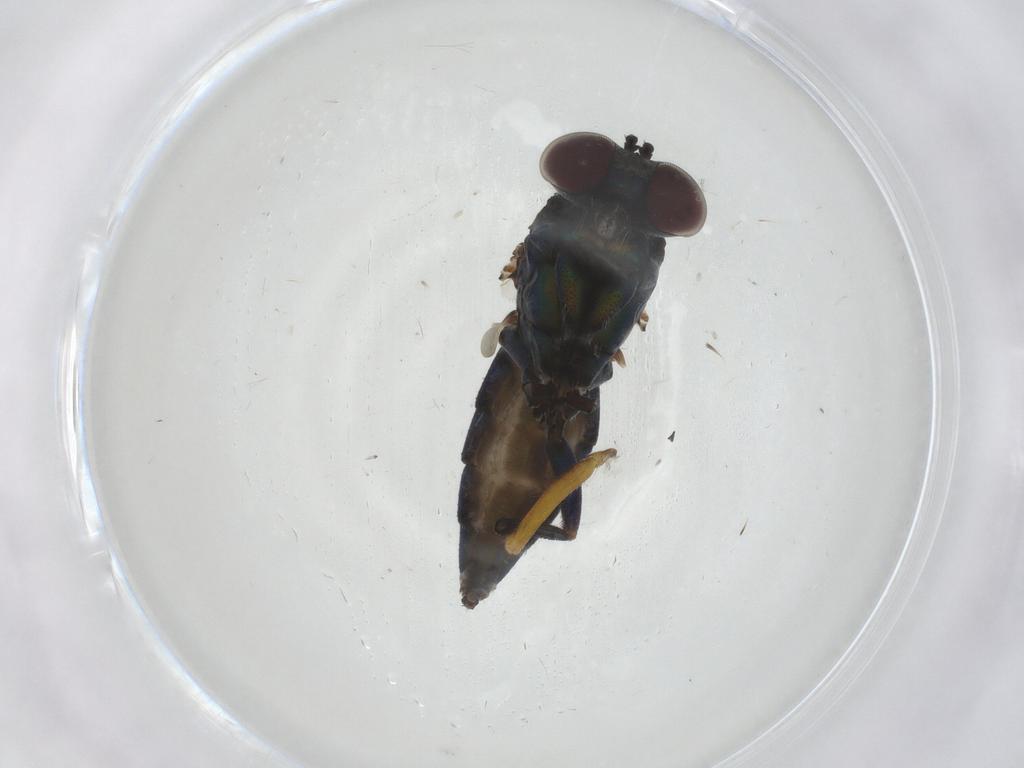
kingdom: Animalia
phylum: Arthropoda
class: Insecta
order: Diptera
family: Dolichopodidae
